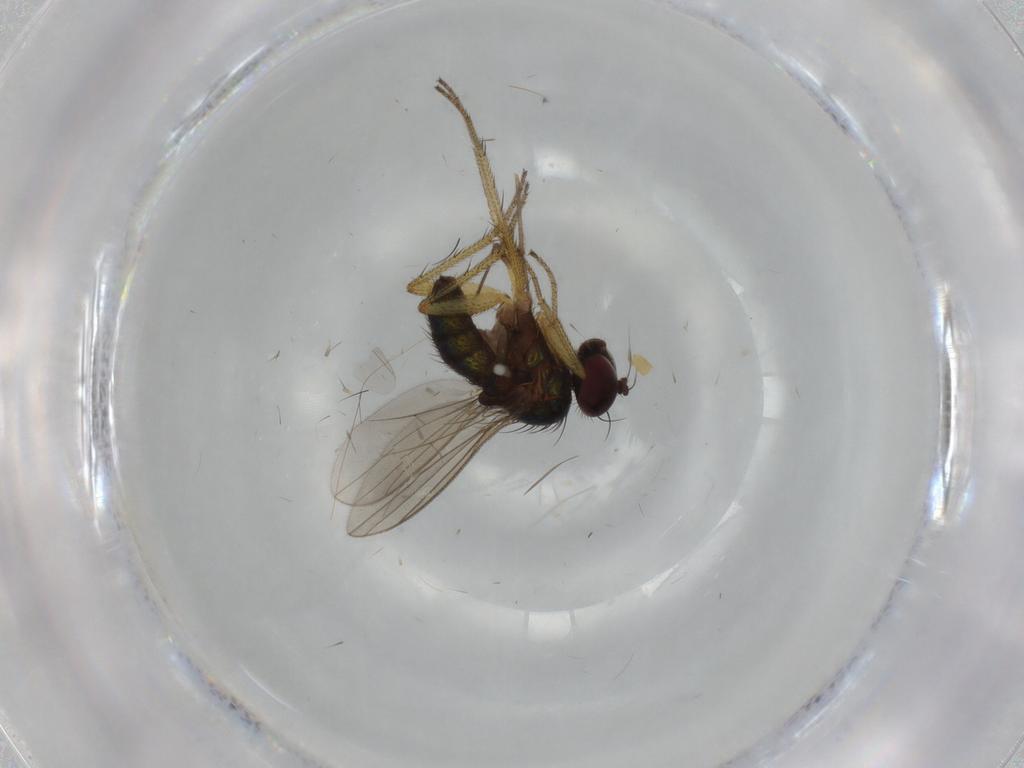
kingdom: Animalia
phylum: Arthropoda
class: Insecta
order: Diptera
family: Dolichopodidae
